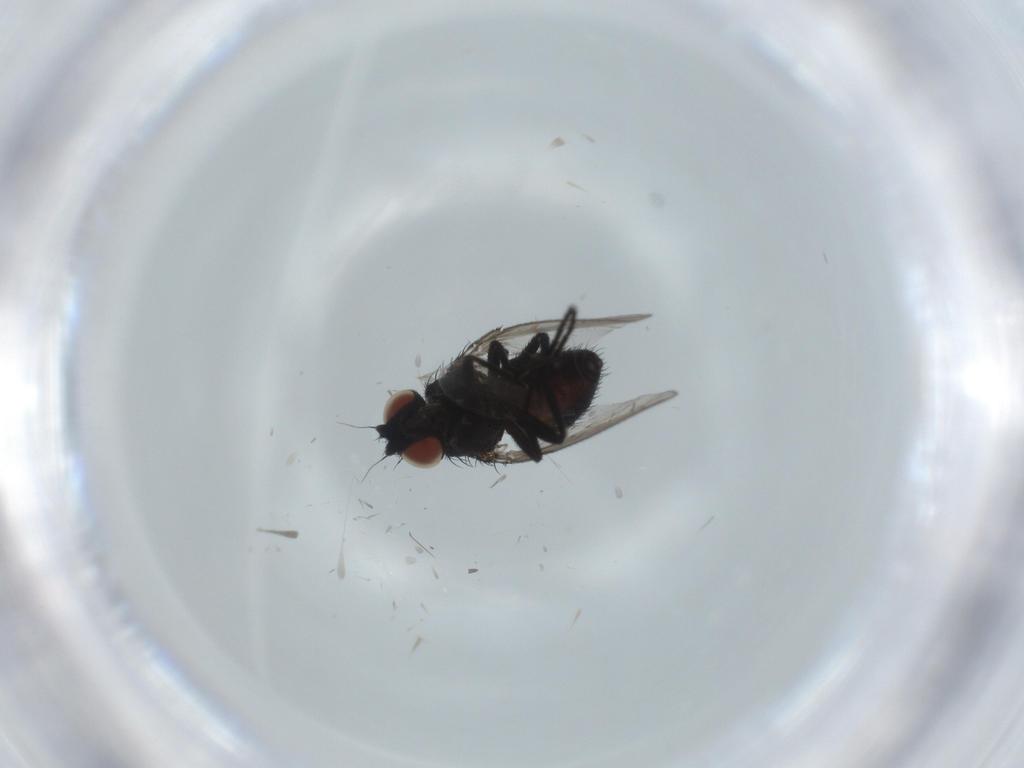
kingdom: Animalia
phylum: Arthropoda
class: Insecta
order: Diptera
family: Milichiidae
